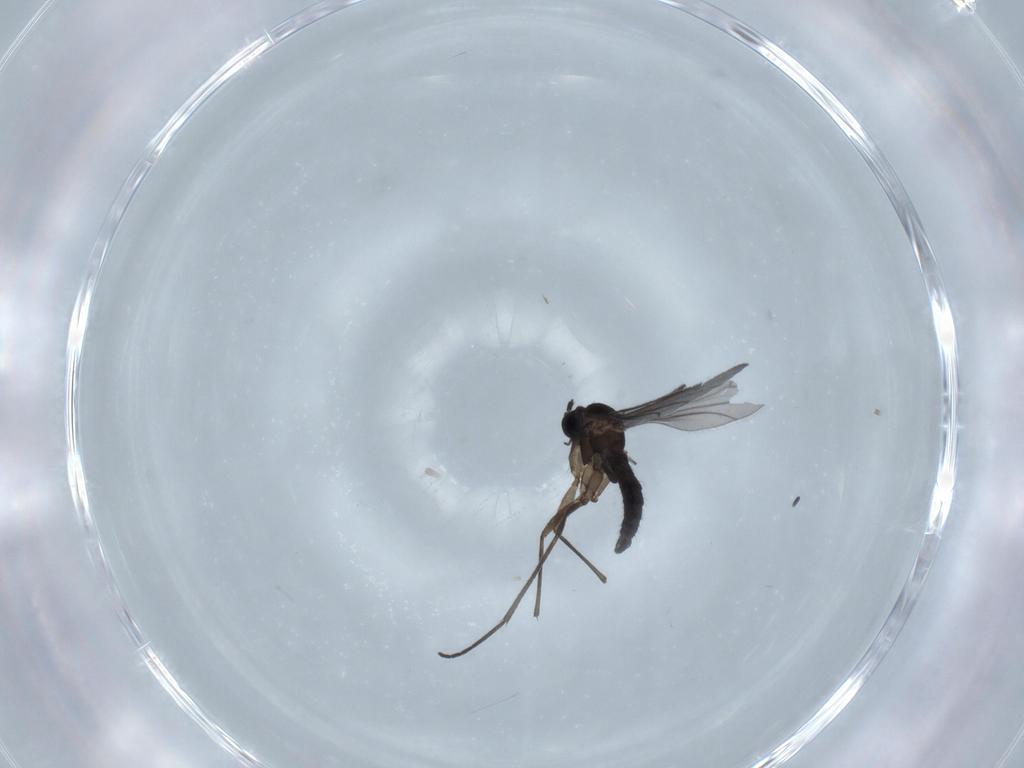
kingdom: Animalia
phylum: Arthropoda
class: Insecta
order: Diptera
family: Sciaridae
